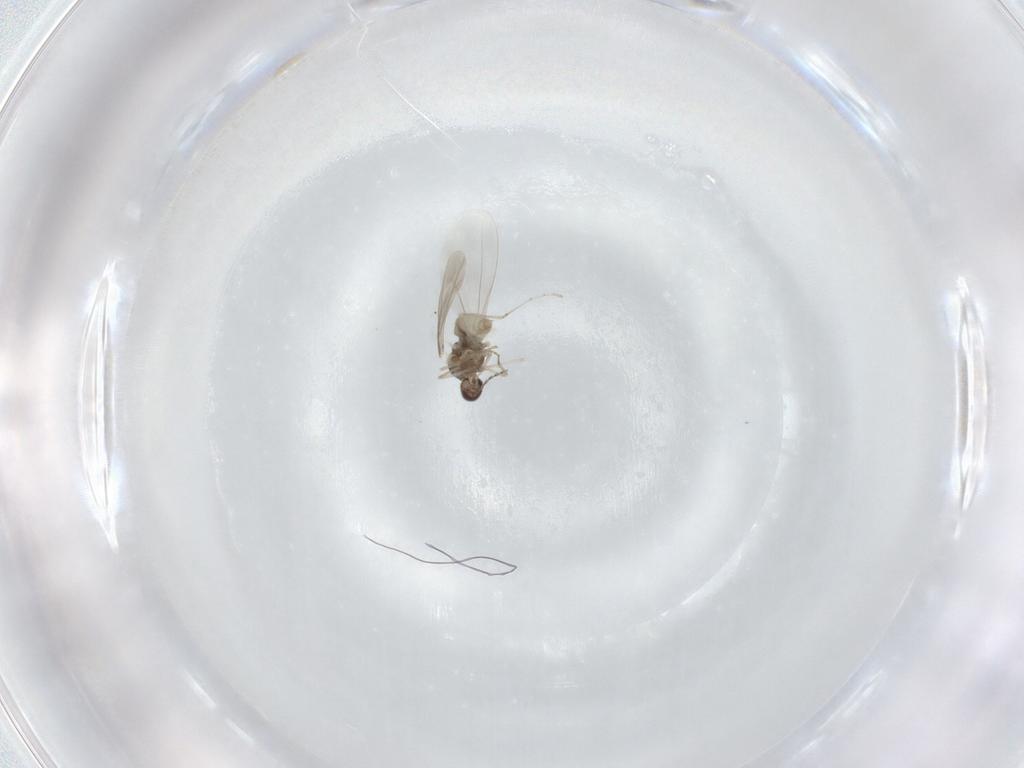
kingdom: Animalia
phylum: Arthropoda
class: Insecta
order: Diptera
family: Cecidomyiidae
